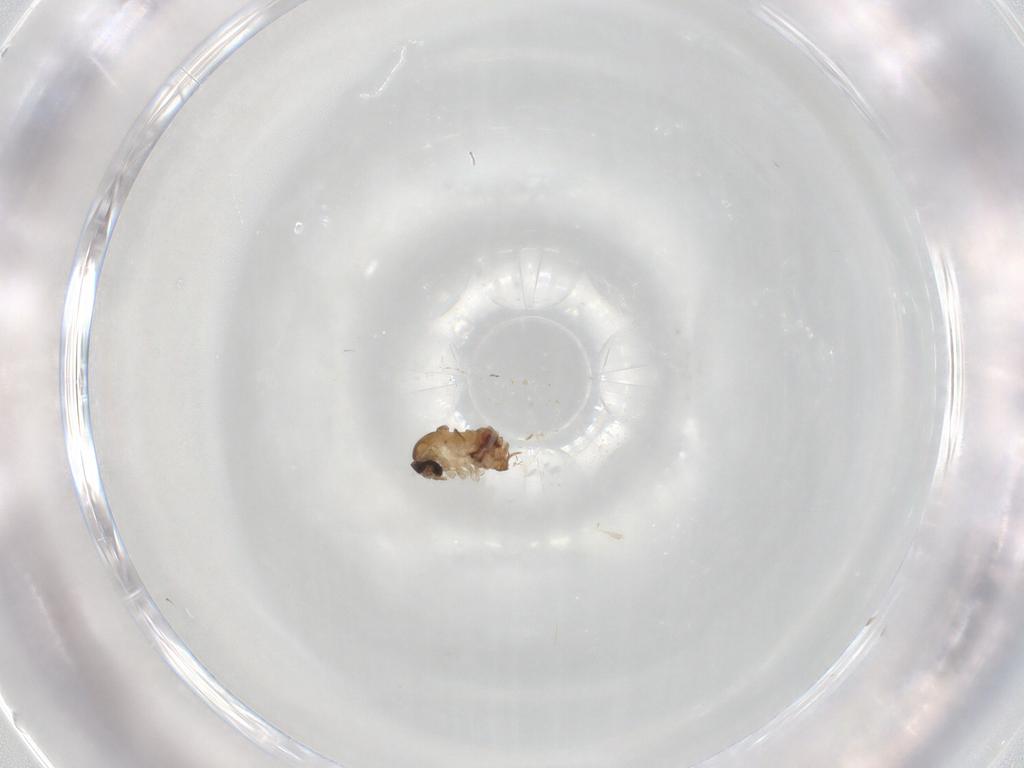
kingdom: Animalia
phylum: Arthropoda
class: Insecta
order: Diptera
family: Psychodidae
